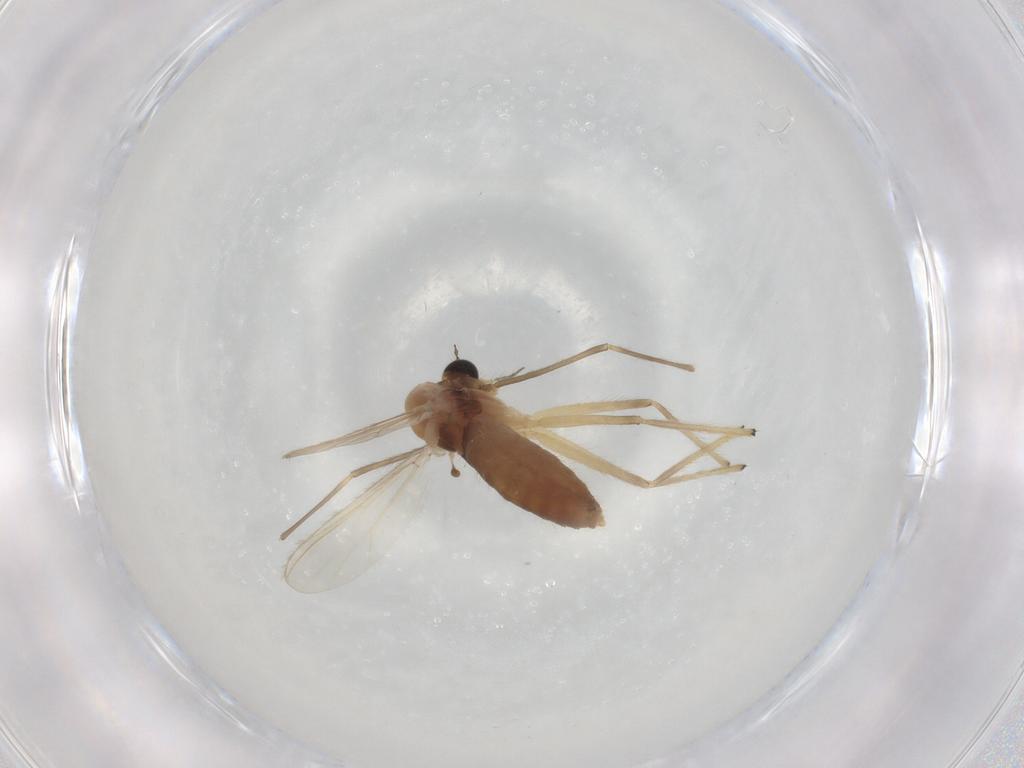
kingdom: Animalia
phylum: Arthropoda
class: Insecta
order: Diptera
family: Chironomidae
